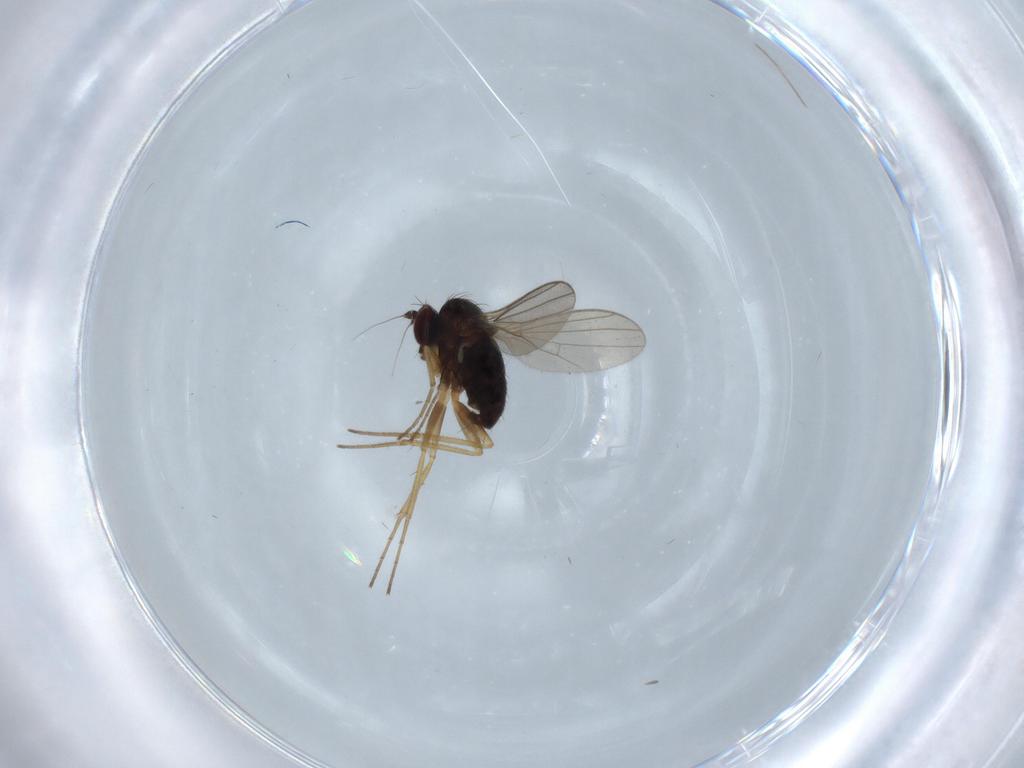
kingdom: Animalia
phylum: Arthropoda
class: Insecta
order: Diptera
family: Dolichopodidae
